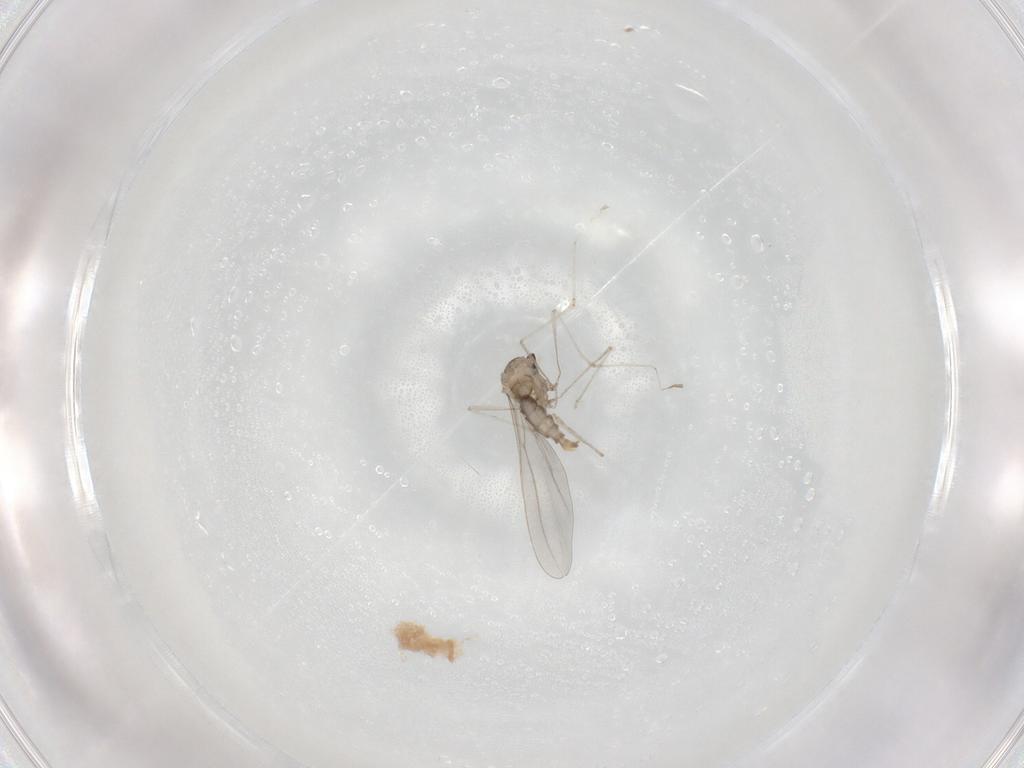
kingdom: Animalia
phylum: Arthropoda
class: Insecta
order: Diptera
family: Cecidomyiidae
